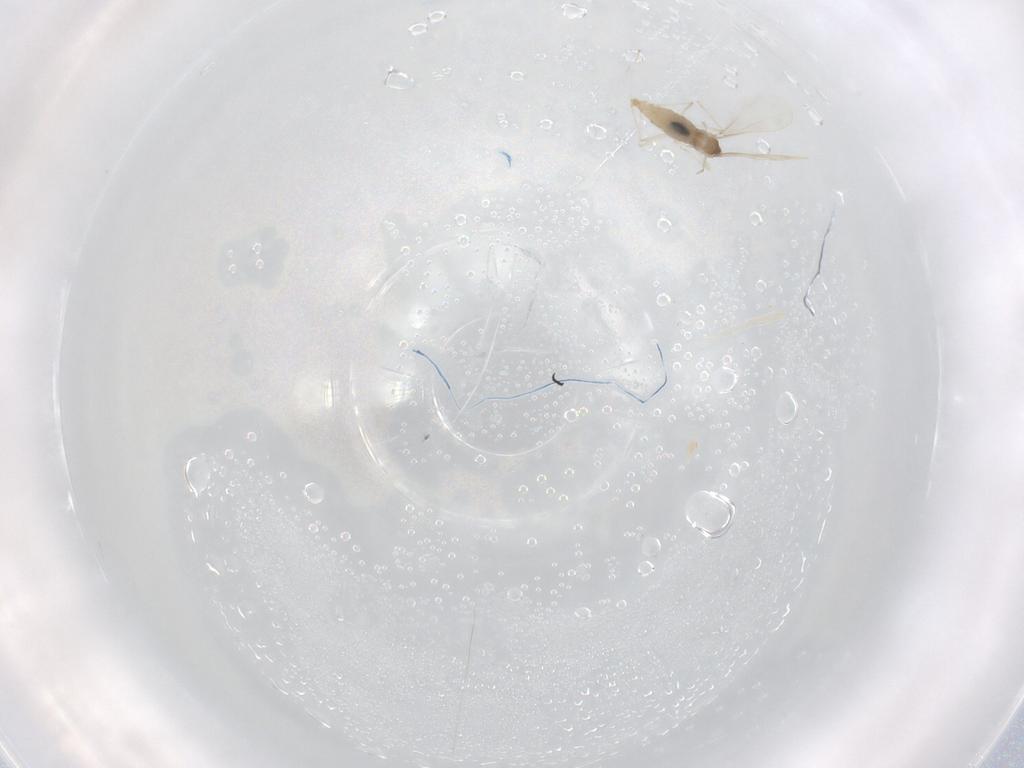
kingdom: Animalia
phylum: Arthropoda
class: Insecta
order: Diptera
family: Cecidomyiidae
